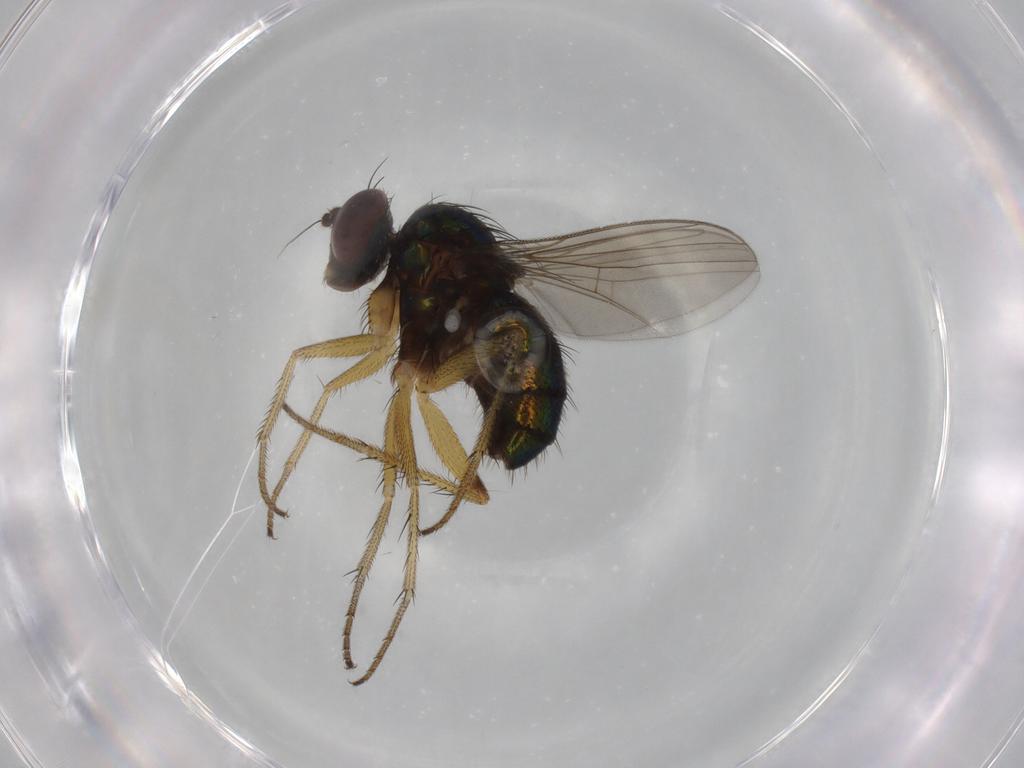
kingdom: Animalia
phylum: Arthropoda
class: Insecta
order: Diptera
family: Dolichopodidae
